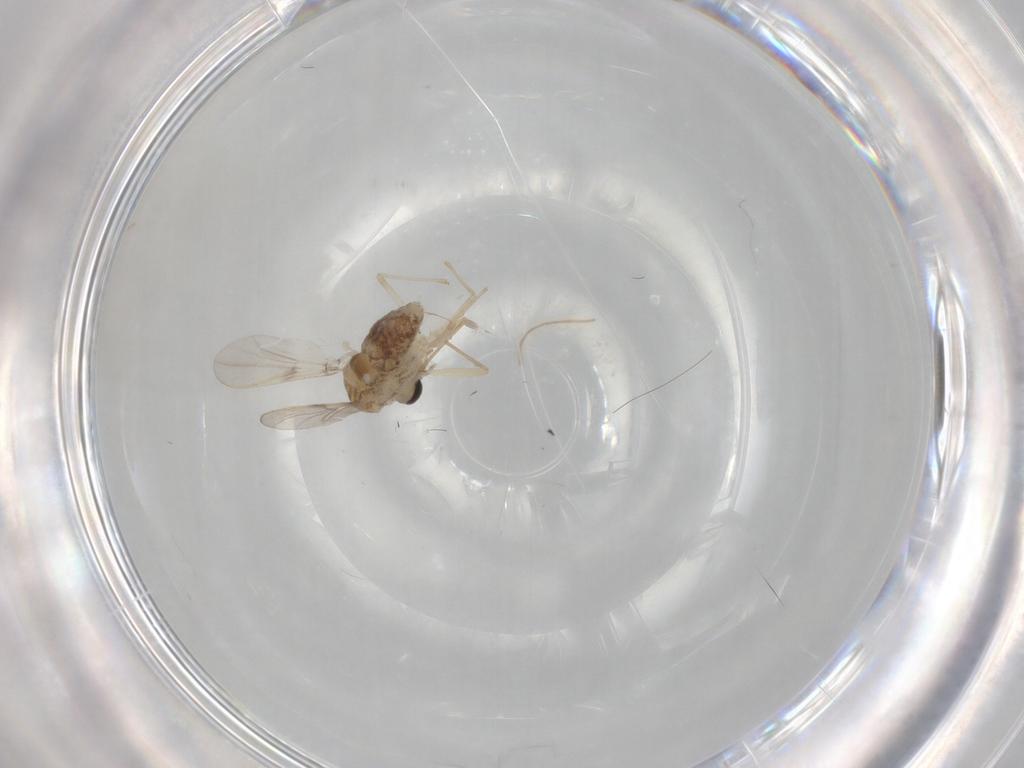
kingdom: Animalia
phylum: Arthropoda
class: Insecta
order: Diptera
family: Chironomidae
